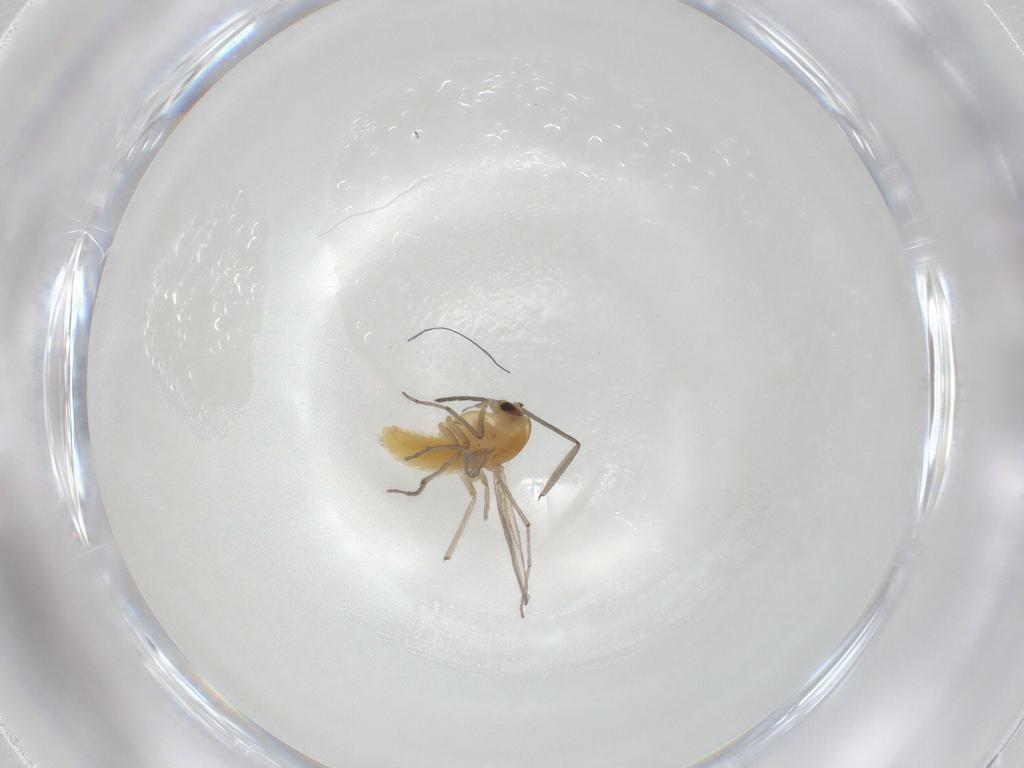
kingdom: Animalia
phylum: Arthropoda
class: Insecta
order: Diptera
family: Chironomidae
